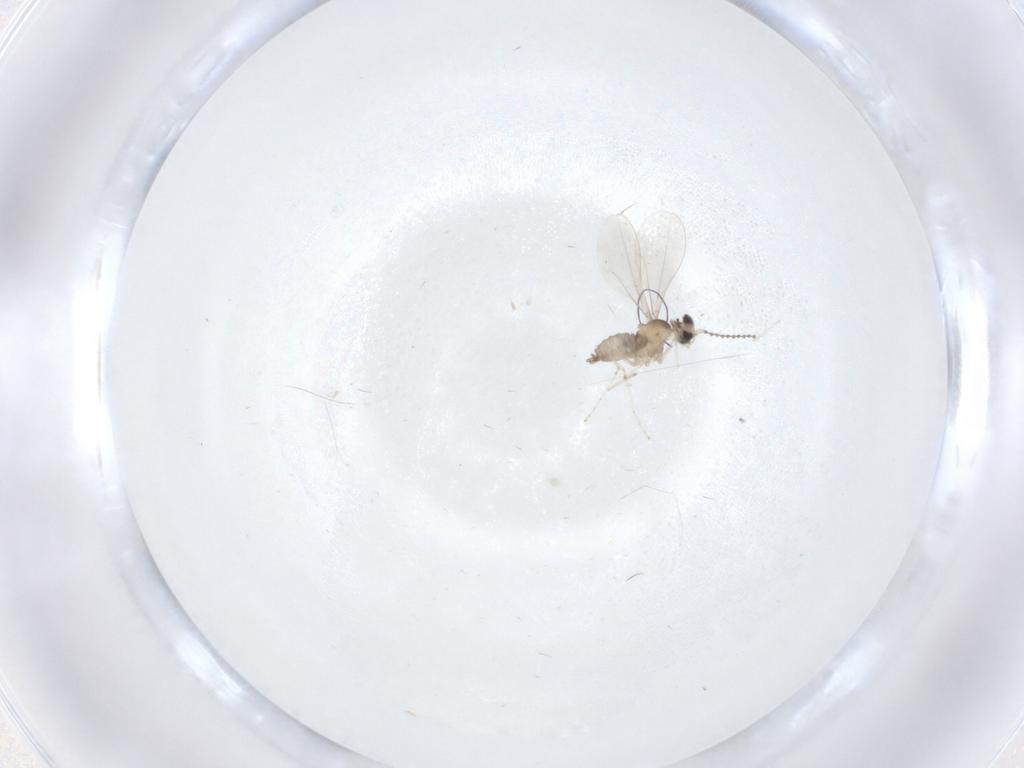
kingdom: Animalia
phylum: Arthropoda
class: Insecta
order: Diptera
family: Cecidomyiidae
